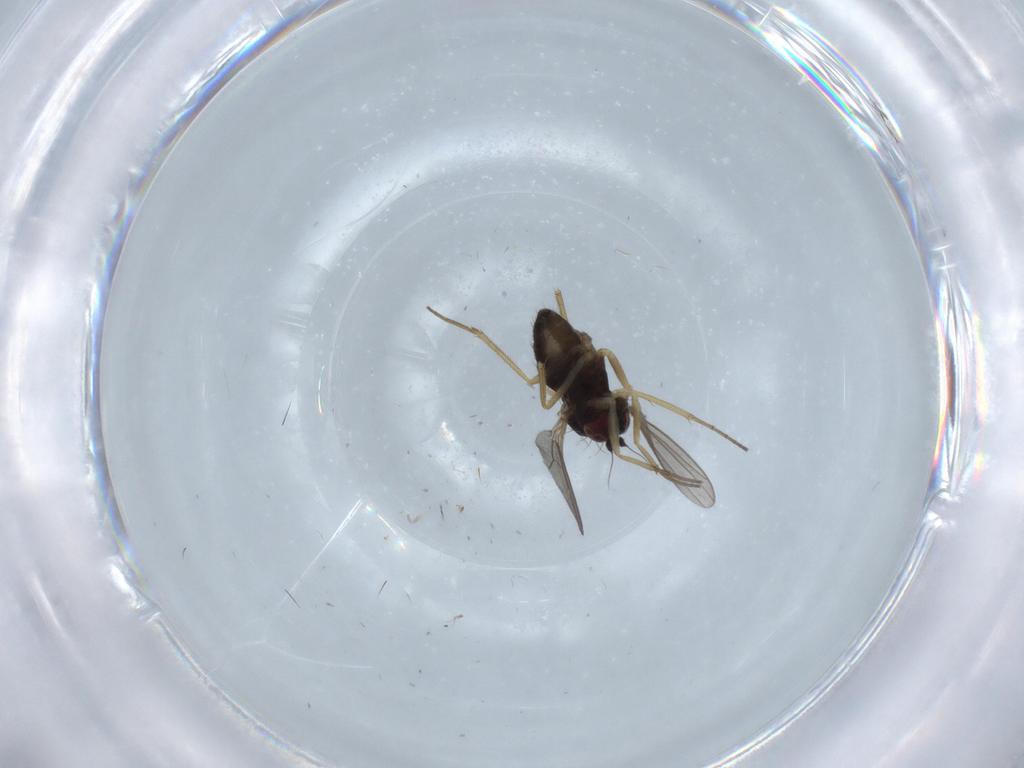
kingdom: Animalia
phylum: Arthropoda
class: Insecta
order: Diptera
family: Dolichopodidae
